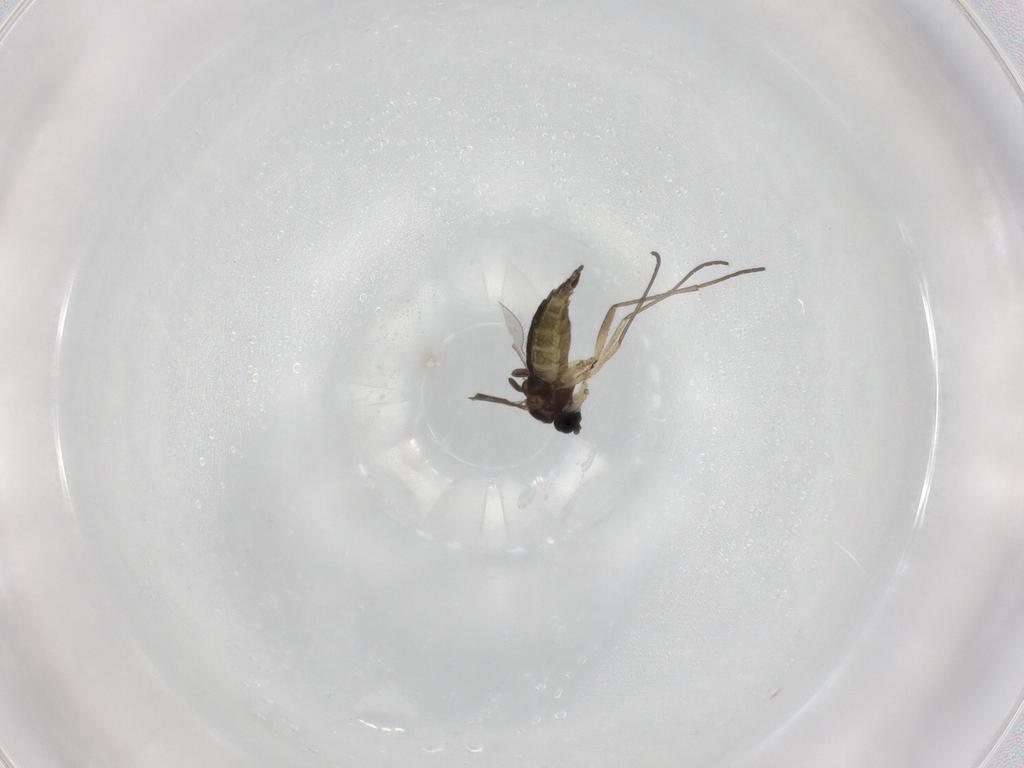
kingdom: Animalia
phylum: Arthropoda
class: Insecta
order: Diptera
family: Sciaridae
